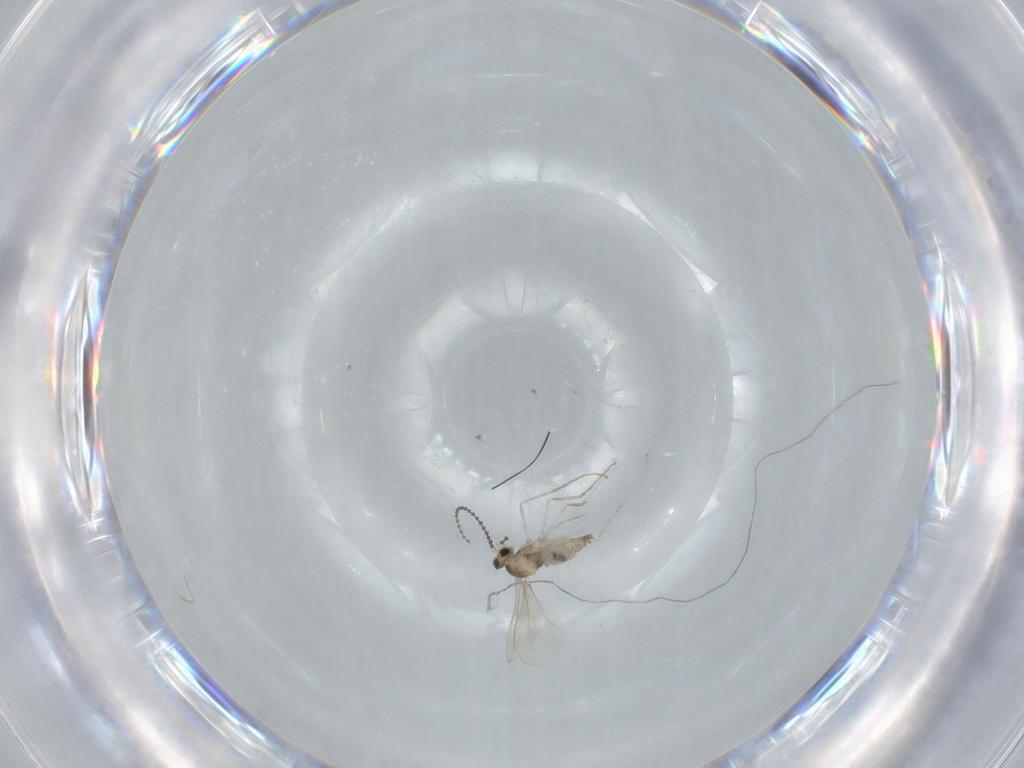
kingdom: Animalia
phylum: Arthropoda
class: Insecta
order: Diptera
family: Cecidomyiidae
